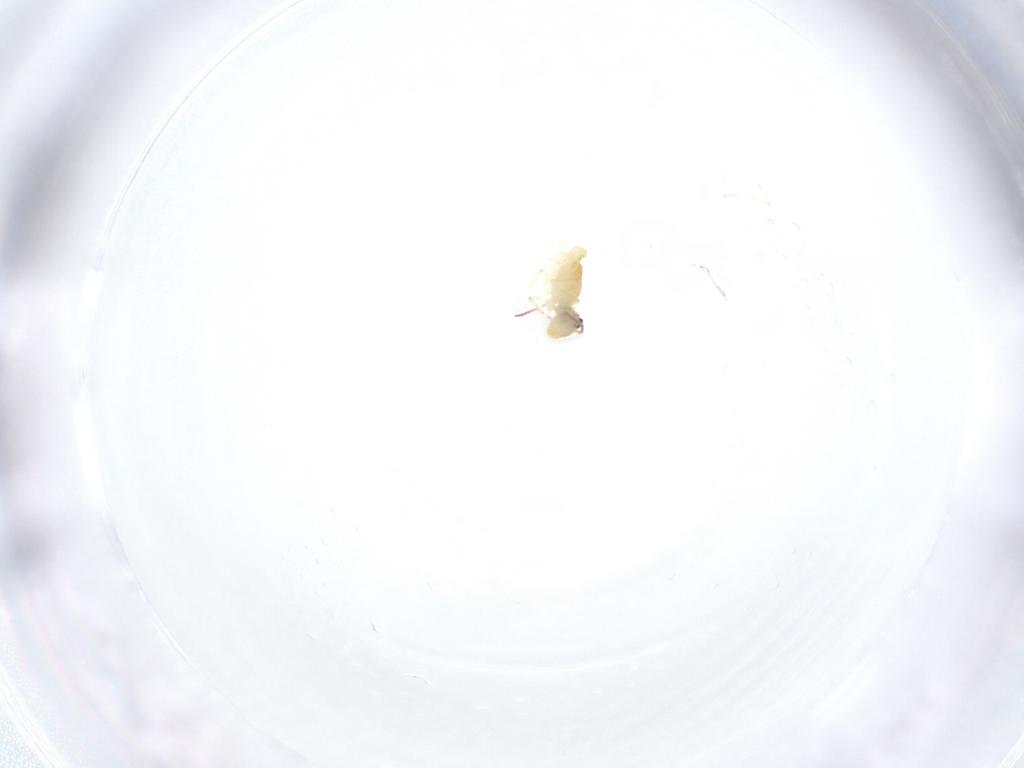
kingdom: Animalia
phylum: Arthropoda
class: Collembola
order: Symphypleona
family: Bourletiellidae
